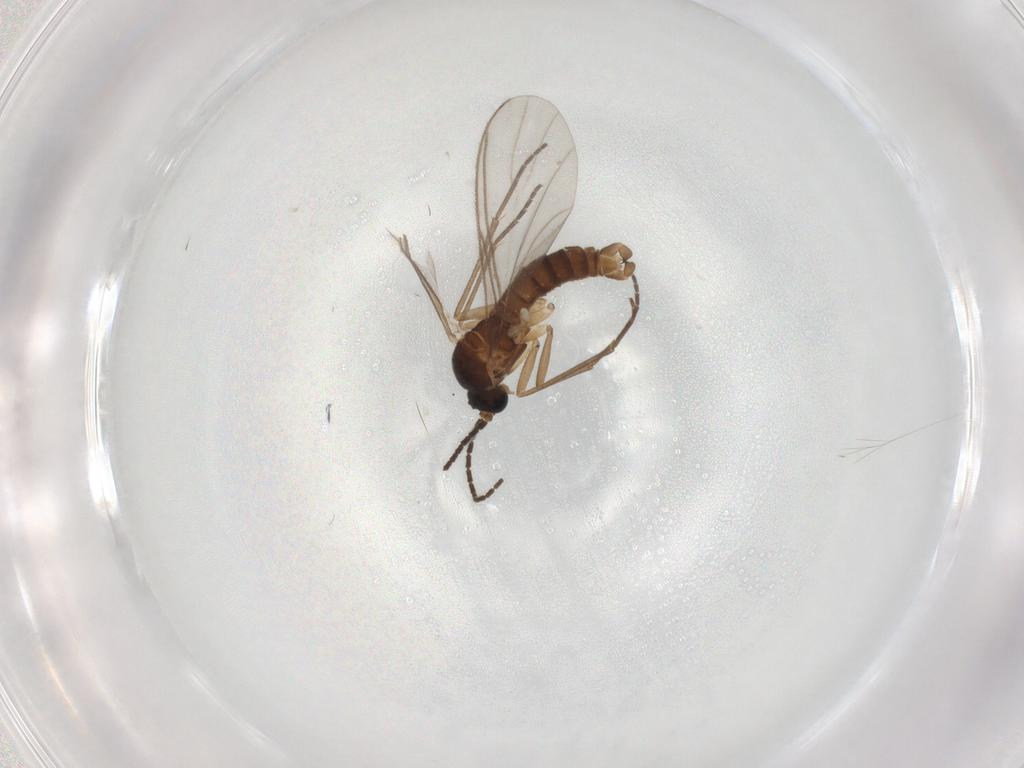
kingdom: Animalia
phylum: Arthropoda
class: Insecta
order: Diptera
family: Sciaridae
